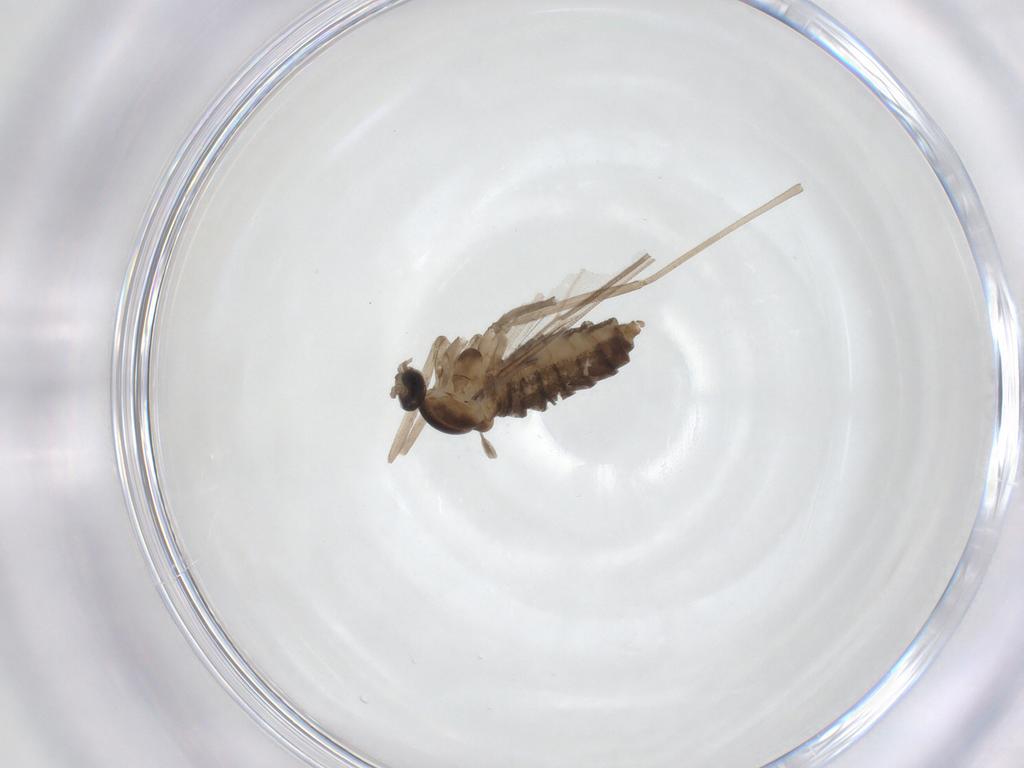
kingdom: Animalia
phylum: Arthropoda
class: Insecta
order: Diptera
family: Cecidomyiidae
